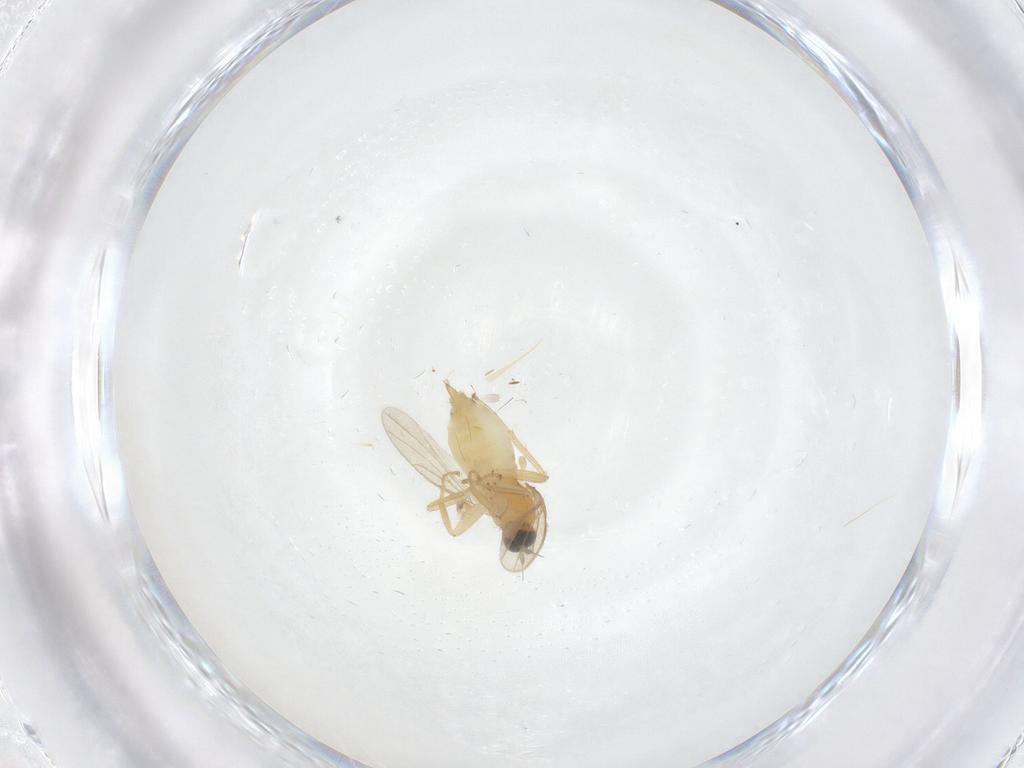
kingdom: Animalia
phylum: Arthropoda
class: Insecta
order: Diptera
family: Hybotidae
